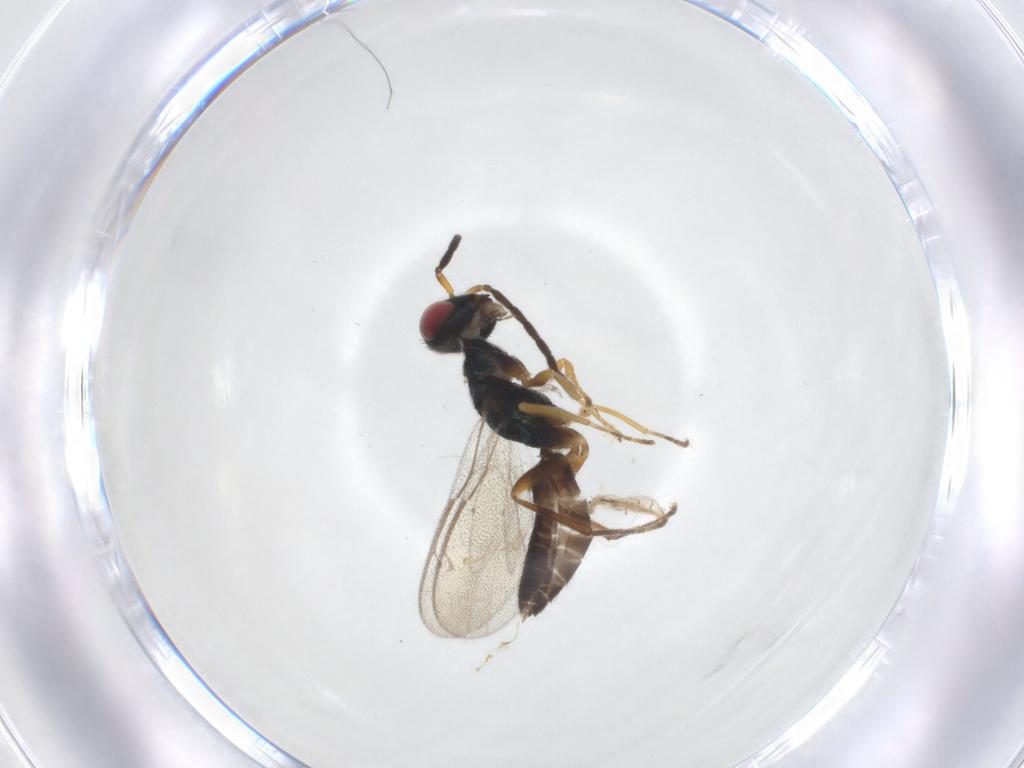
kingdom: Animalia
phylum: Arthropoda
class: Insecta
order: Hymenoptera
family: Pteromalidae
